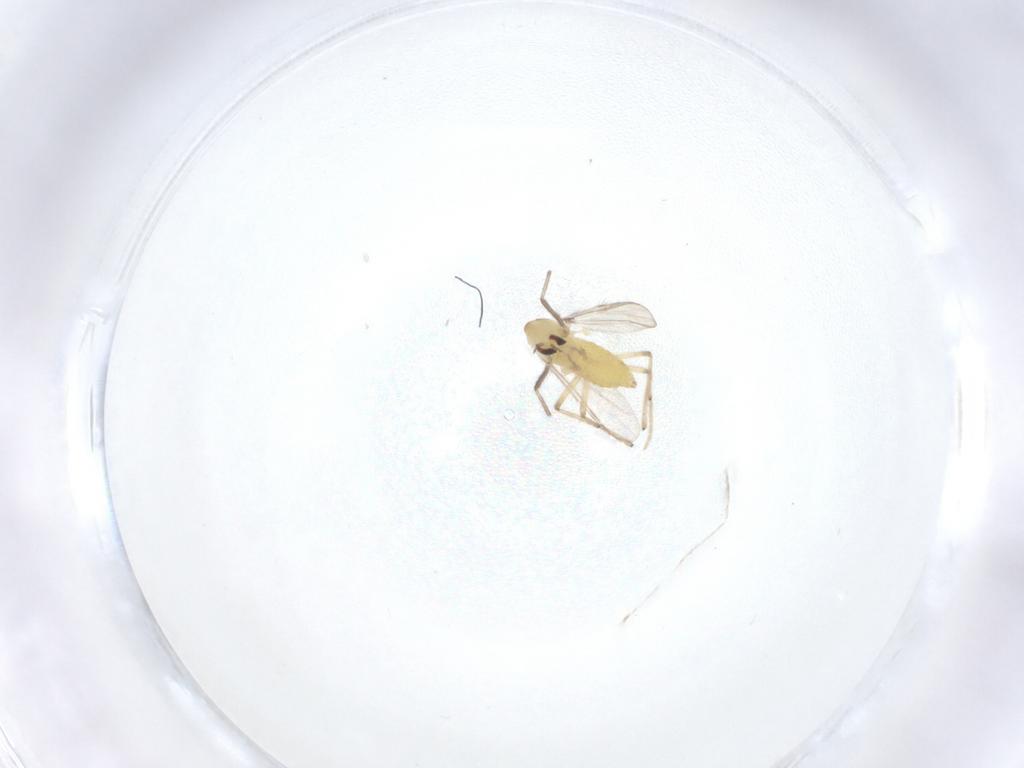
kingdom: Animalia
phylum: Arthropoda
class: Insecta
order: Diptera
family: Chironomidae
